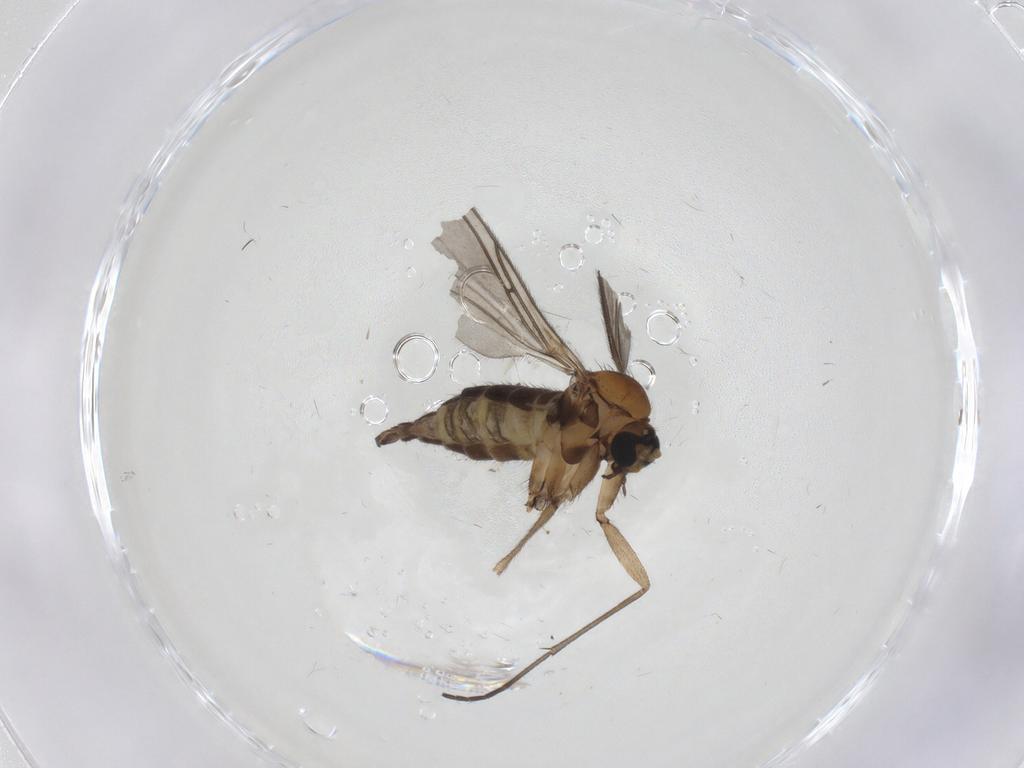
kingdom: Animalia
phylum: Arthropoda
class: Insecta
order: Diptera
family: Sciaridae
